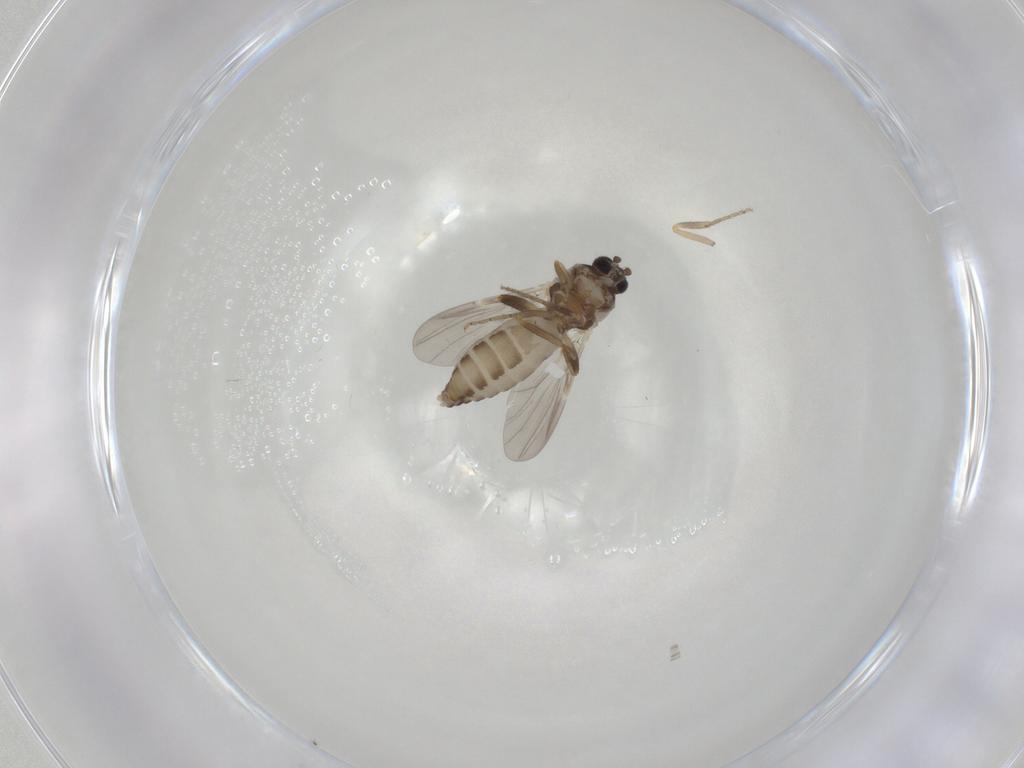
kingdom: Animalia
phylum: Arthropoda
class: Insecta
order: Diptera
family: Ceratopogonidae
